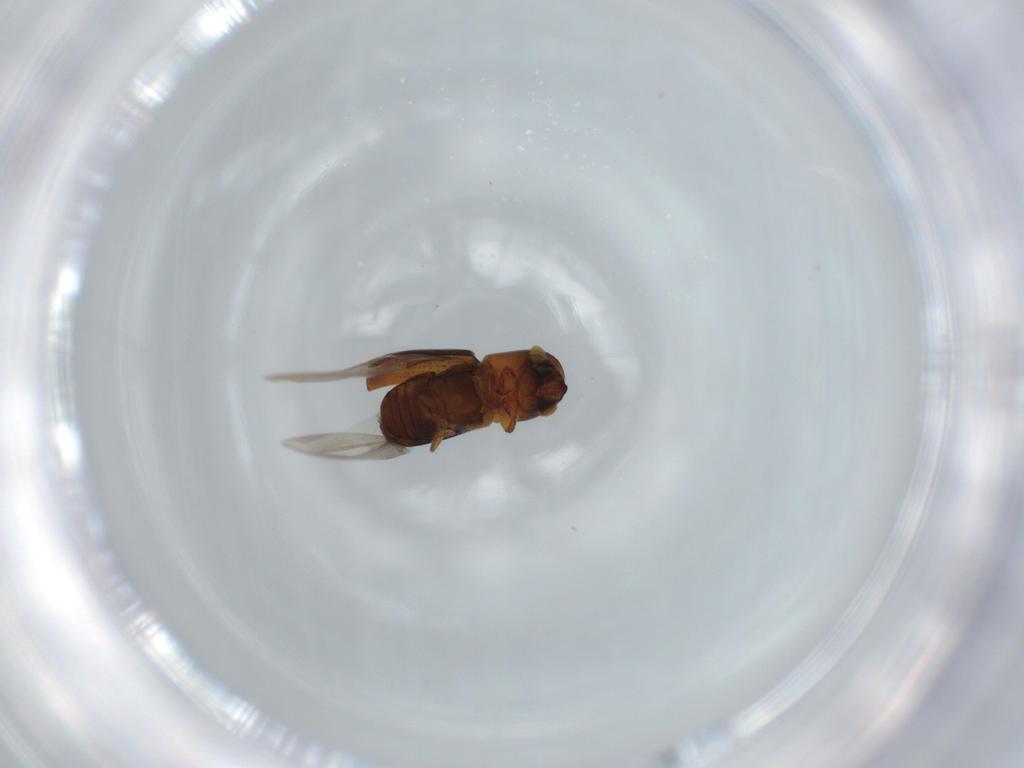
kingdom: Animalia
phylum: Arthropoda
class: Insecta
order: Coleoptera
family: Curculionidae
